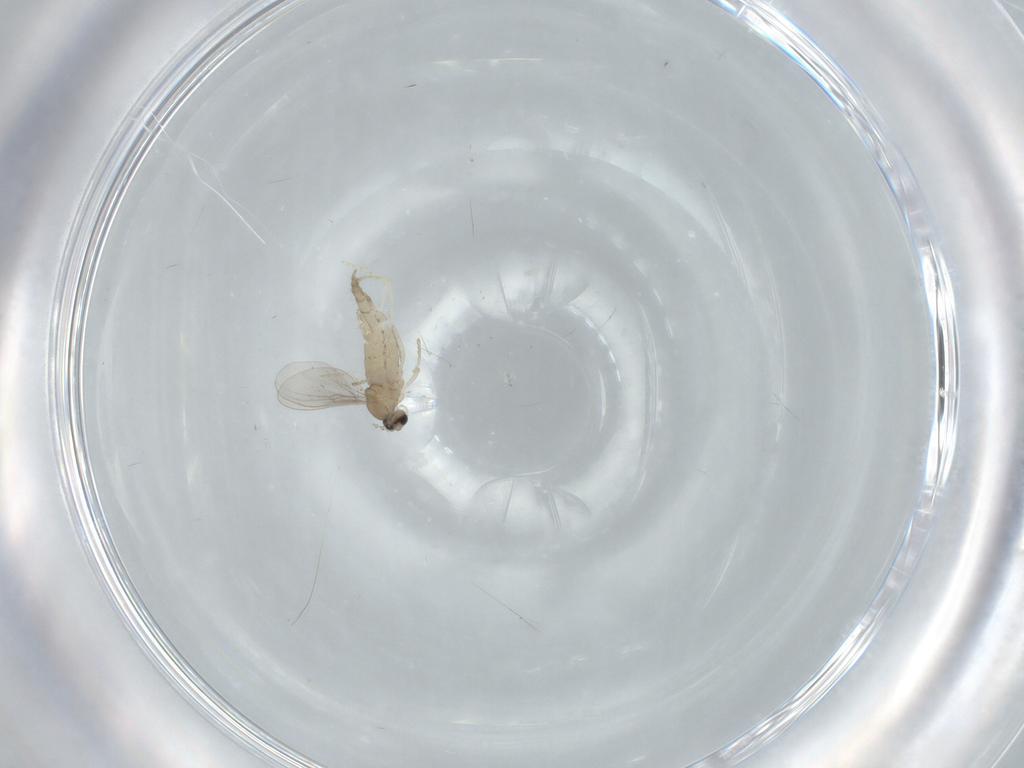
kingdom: Animalia
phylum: Arthropoda
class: Insecta
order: Diptera
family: Cecidomyiidae
